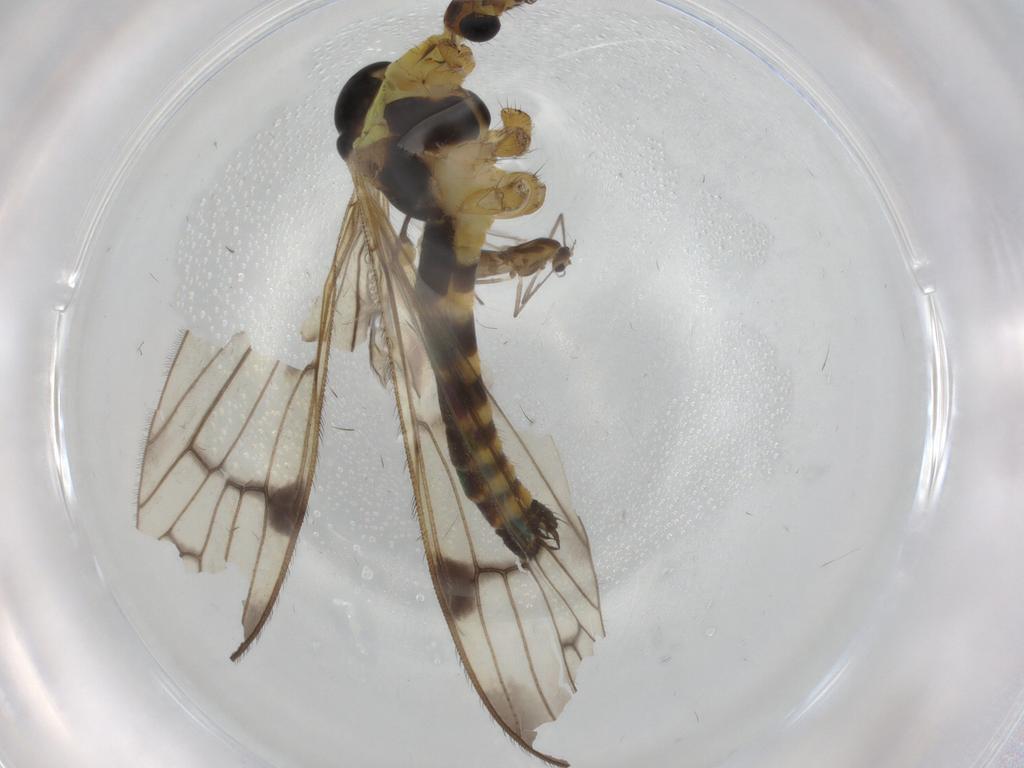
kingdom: Animalia
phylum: Arthropoda
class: Insecta
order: Diptera
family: Limoniidae
